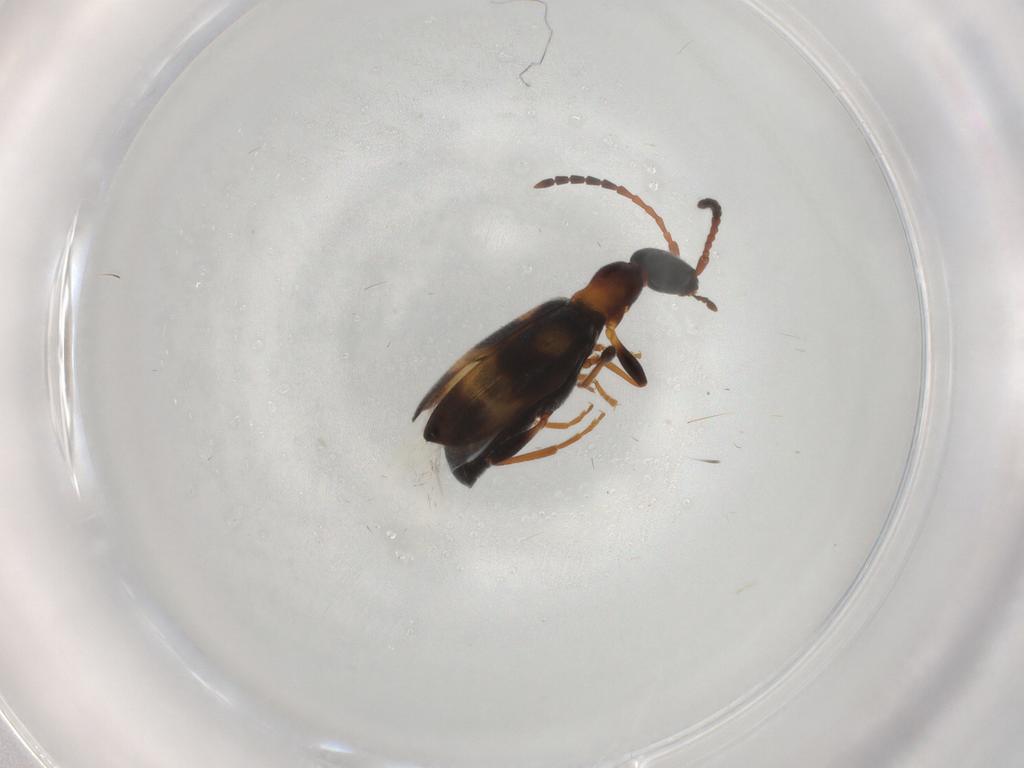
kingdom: Animalia
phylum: Arthropoda
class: Insecta
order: Coleoptera
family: Anthicidae
